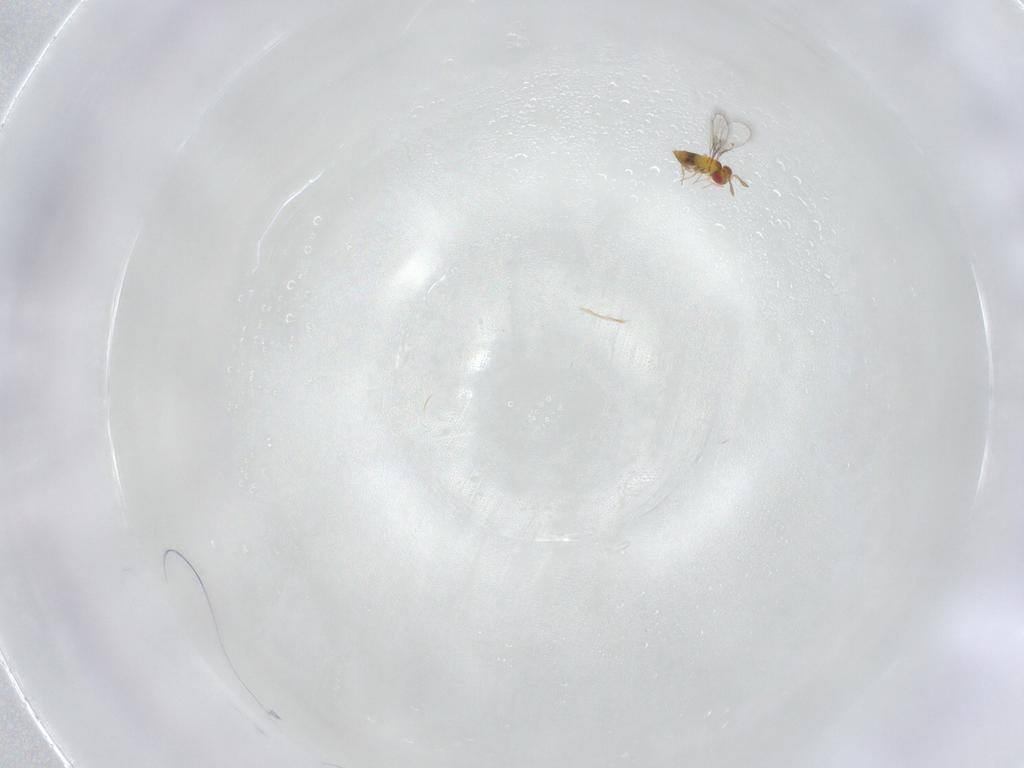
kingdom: Animalia
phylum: Arthropoda
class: Insecta
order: Hymenoptera
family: Trichogrammatidae
